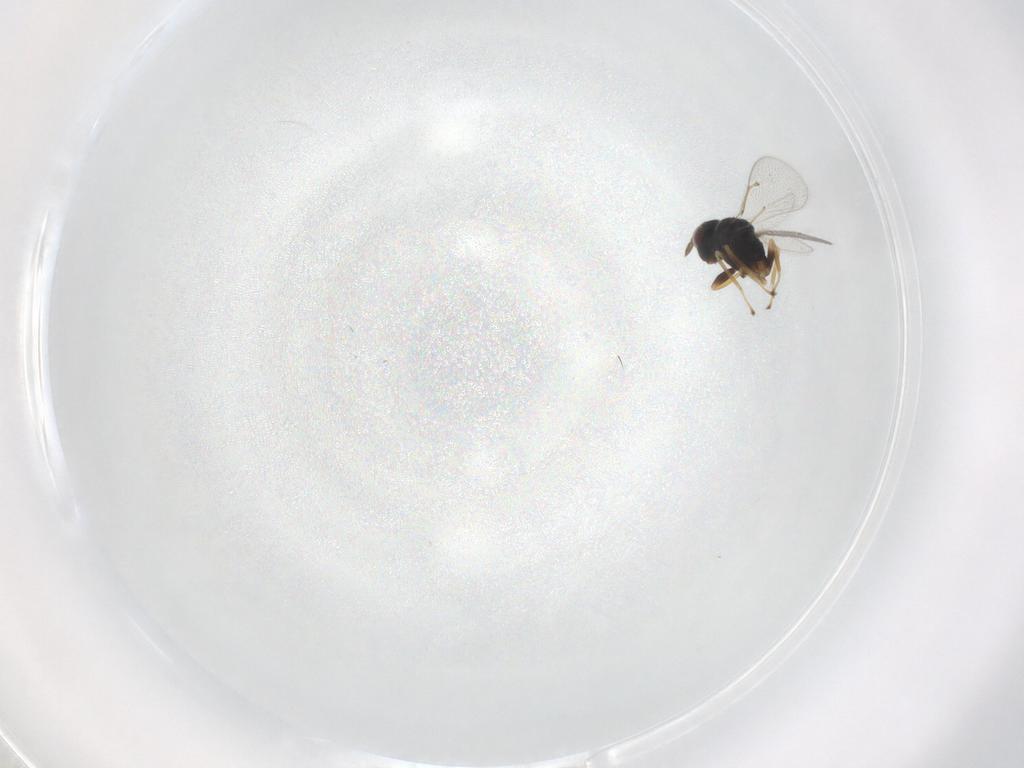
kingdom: Animalia
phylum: Arthropoda
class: Insecta
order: Hymenoptera
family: Eulophidae
